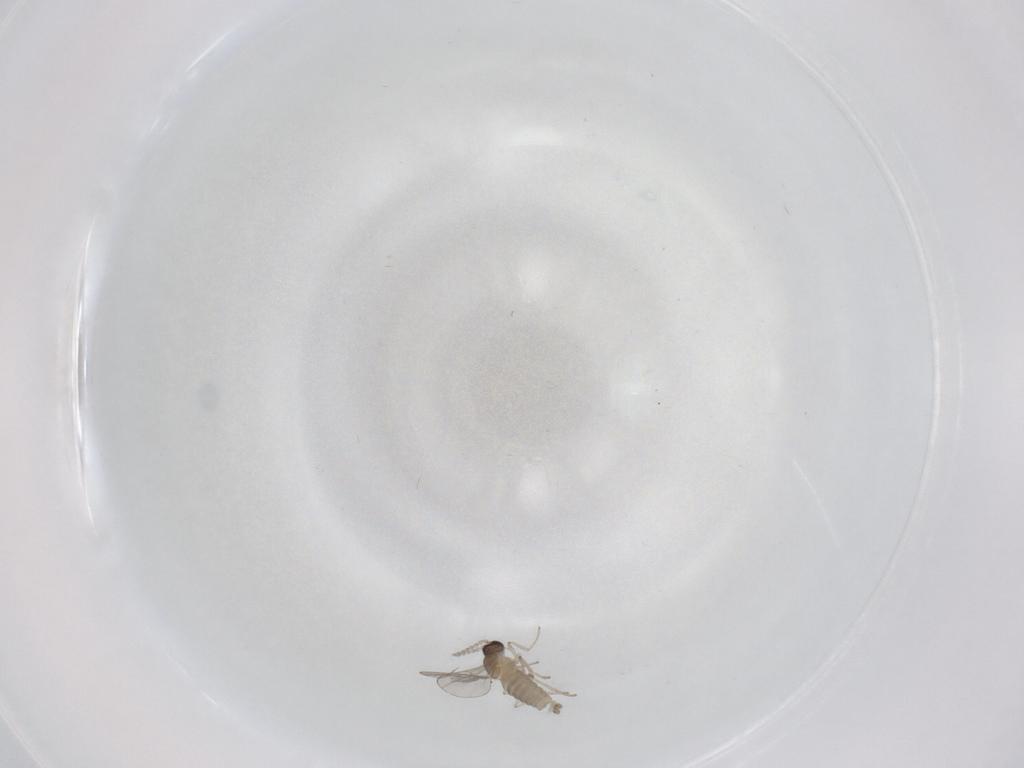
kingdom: Animalia
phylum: Arthropoda
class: Insecta
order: Diptera
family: Cecidomyiidae
